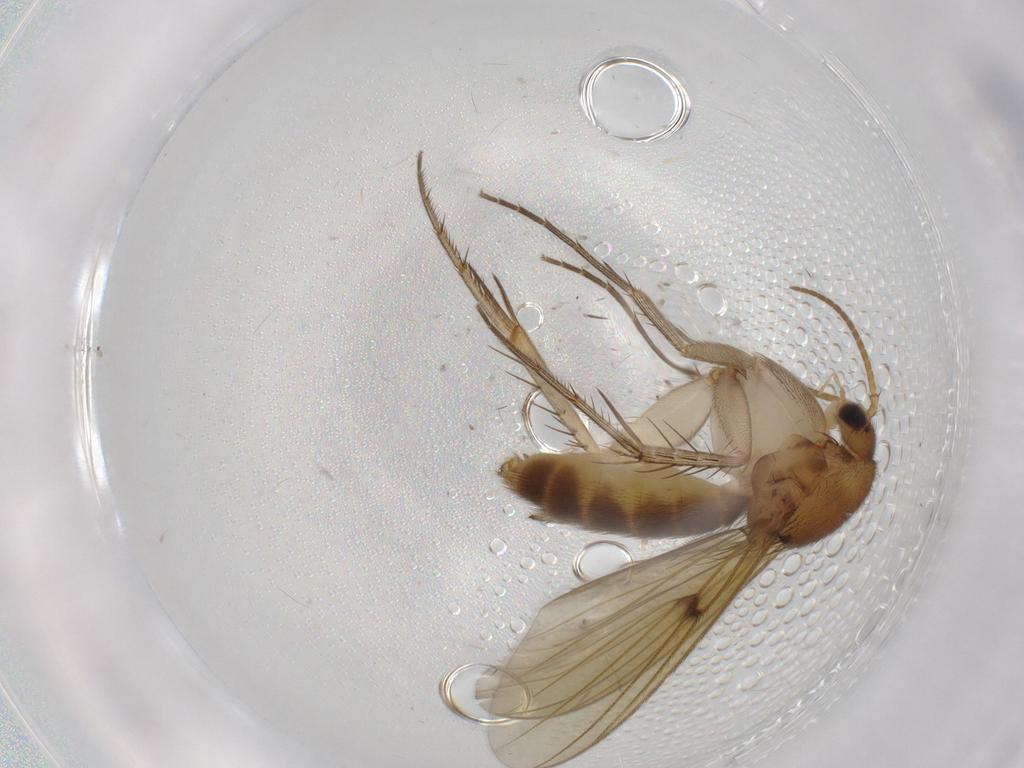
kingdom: Animalia
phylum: Arthropoda
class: Insecta
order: Diptera
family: Mycetophilidae
